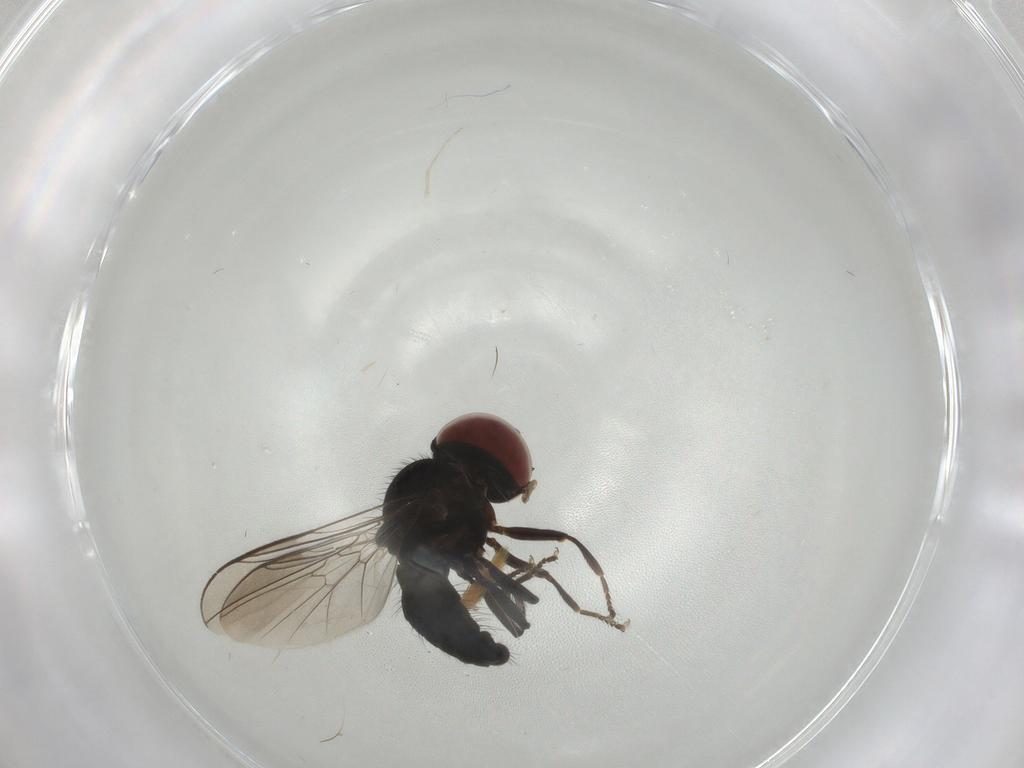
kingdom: Animalia
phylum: Arthropoda
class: Insecta
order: Diptera
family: Pipunculidae
